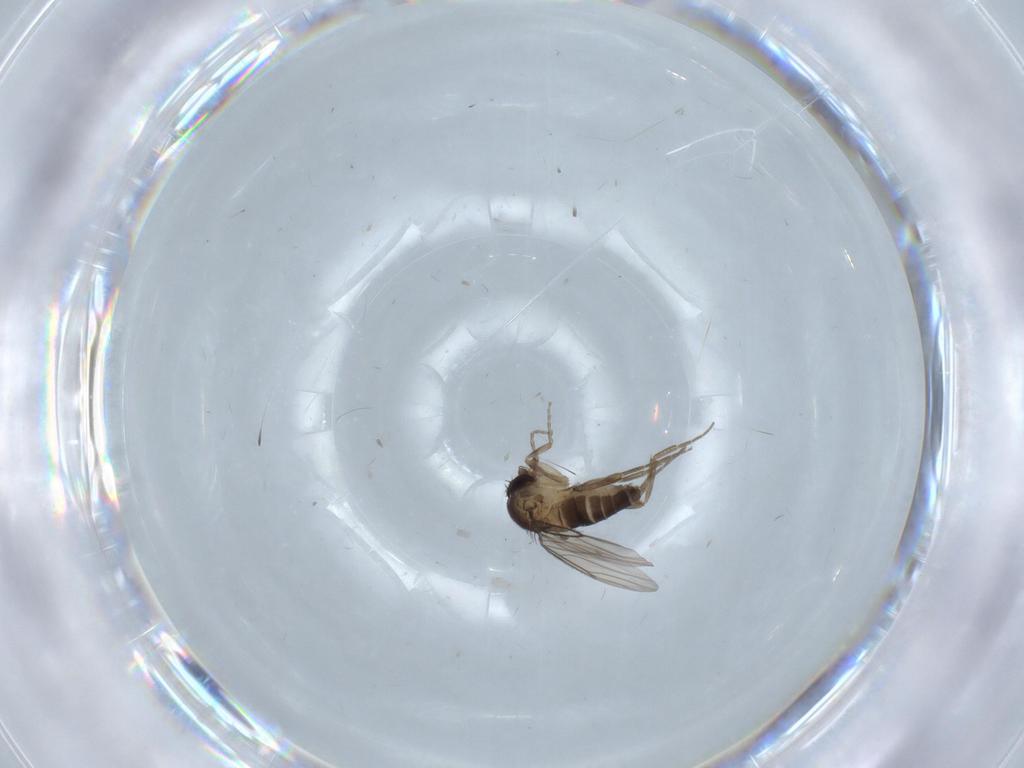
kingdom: Animalia
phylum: Arthropoda
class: Insecta
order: Diptera
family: Phoridae
